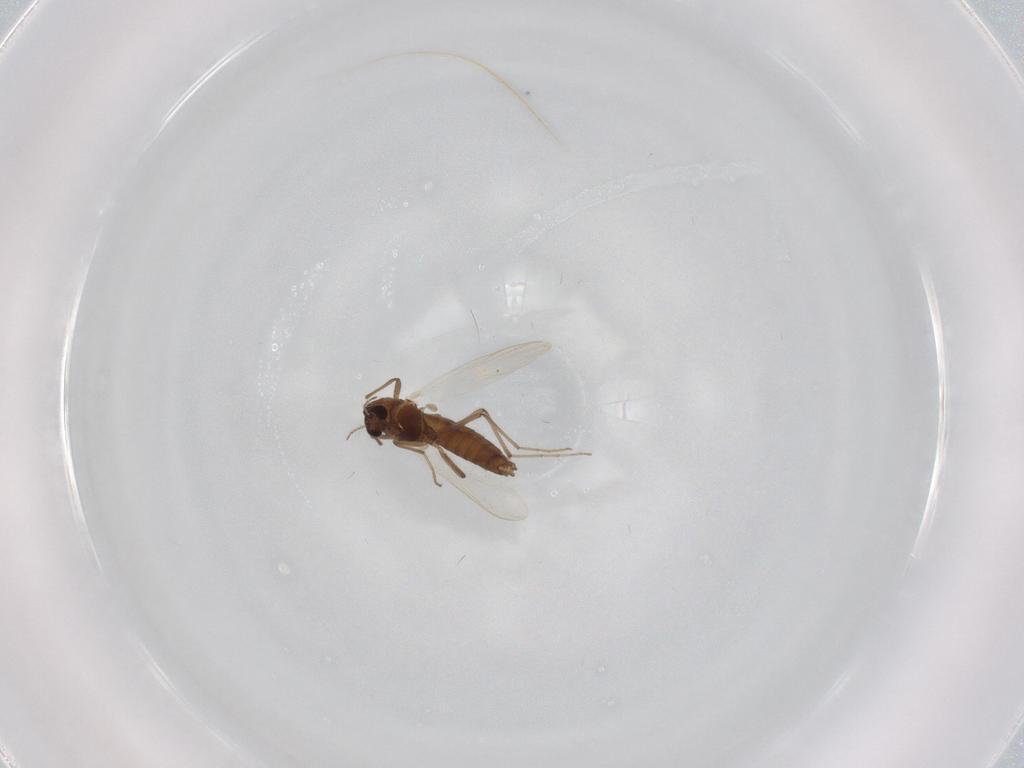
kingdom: Animalia
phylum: Arthropoda
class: Insecta
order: Diptera
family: Chironomidae
